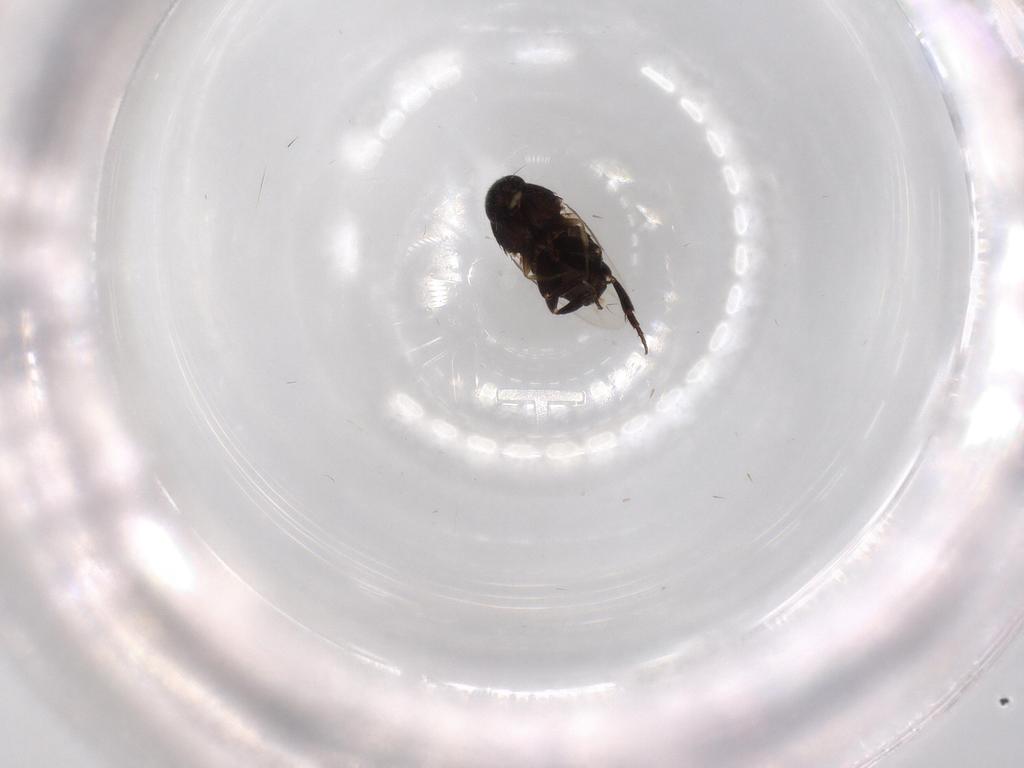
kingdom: Animalia
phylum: Arthropoda
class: Insecta
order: Diptera
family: Phoridae
